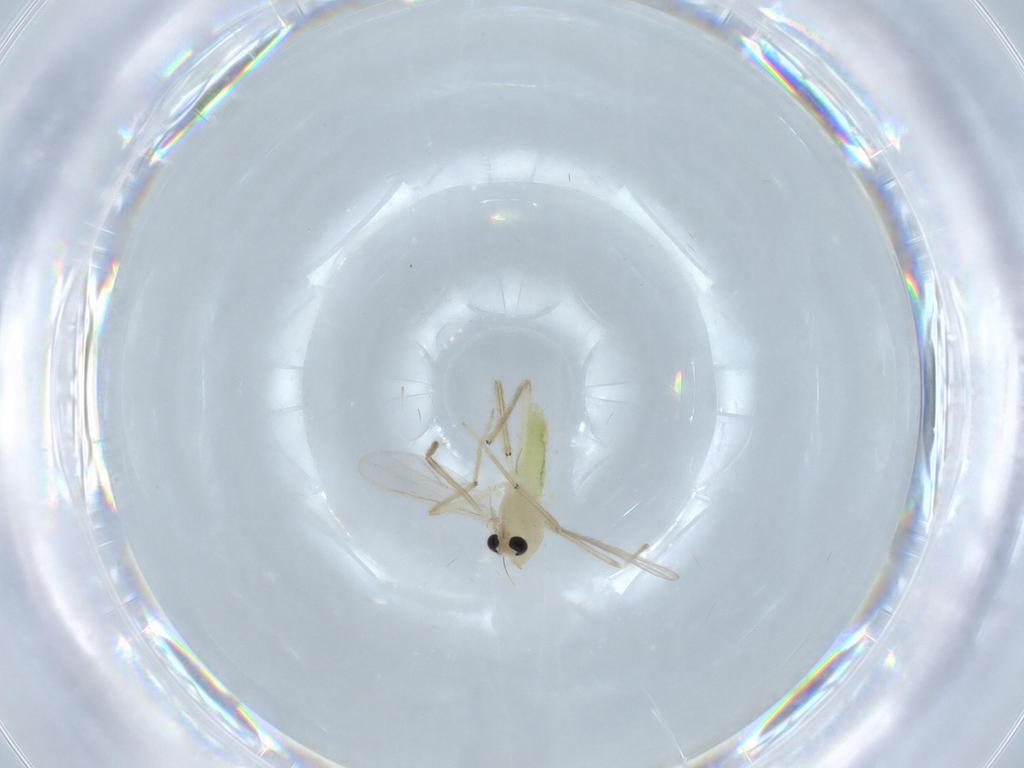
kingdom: Animalia
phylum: Arthropoda
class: Insecta
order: Diptera
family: Chironomidae
